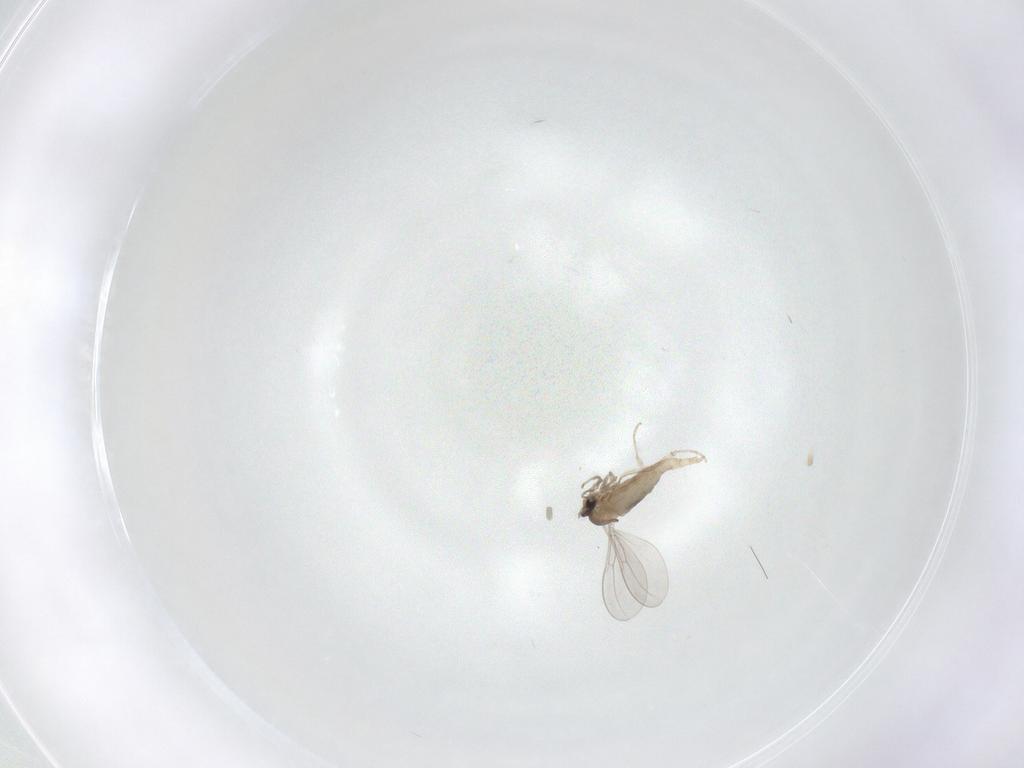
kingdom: Animalia
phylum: Arthropoda
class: Insecta
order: Diptera
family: Cecidomyiidae
